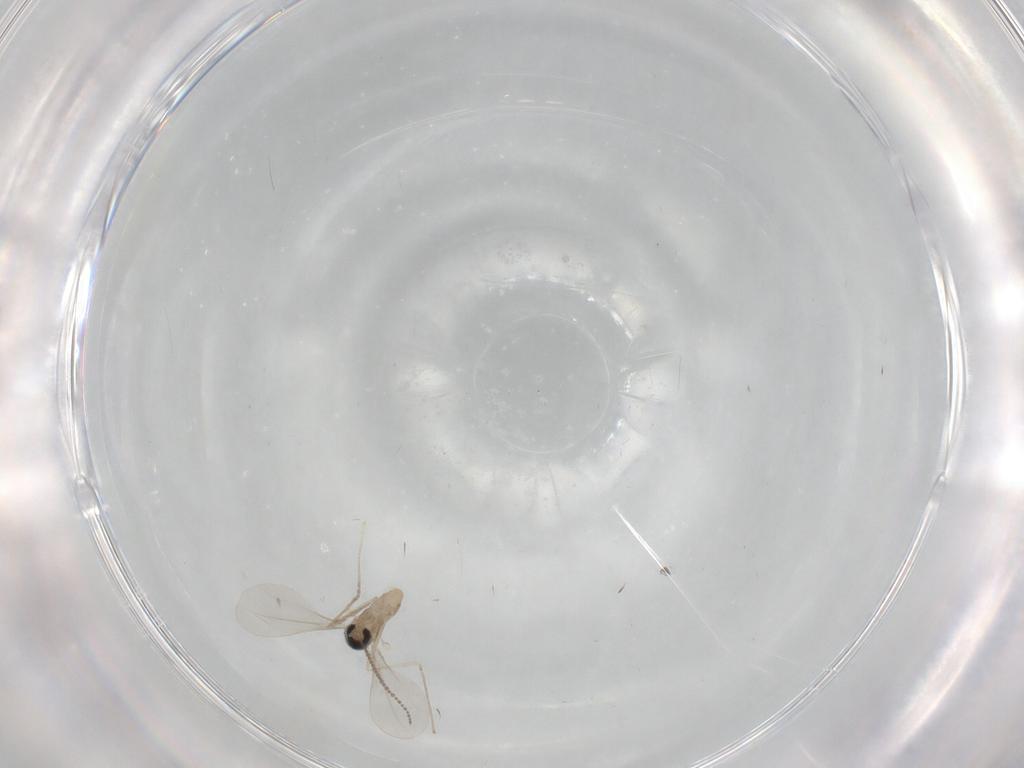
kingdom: Animalia
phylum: Arthropoda
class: Insecta
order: Diptera
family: Cecidomyiidae
